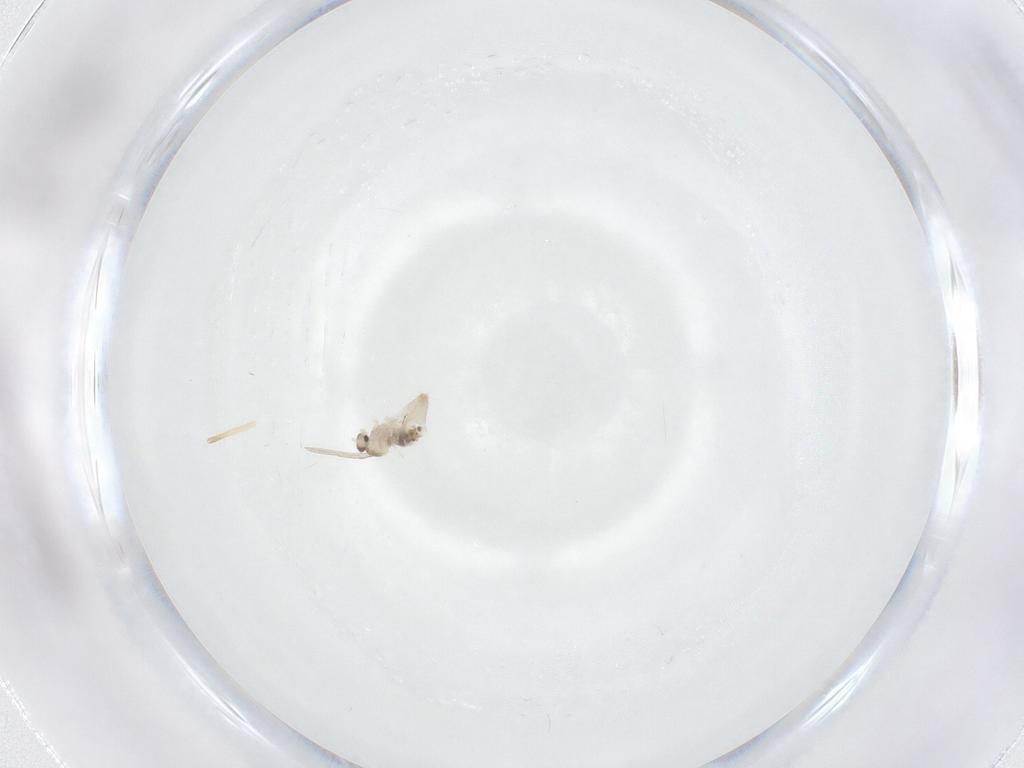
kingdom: Animalia
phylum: Arthropoda
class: Insecta
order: Diptera
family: Cecidomyiidae
